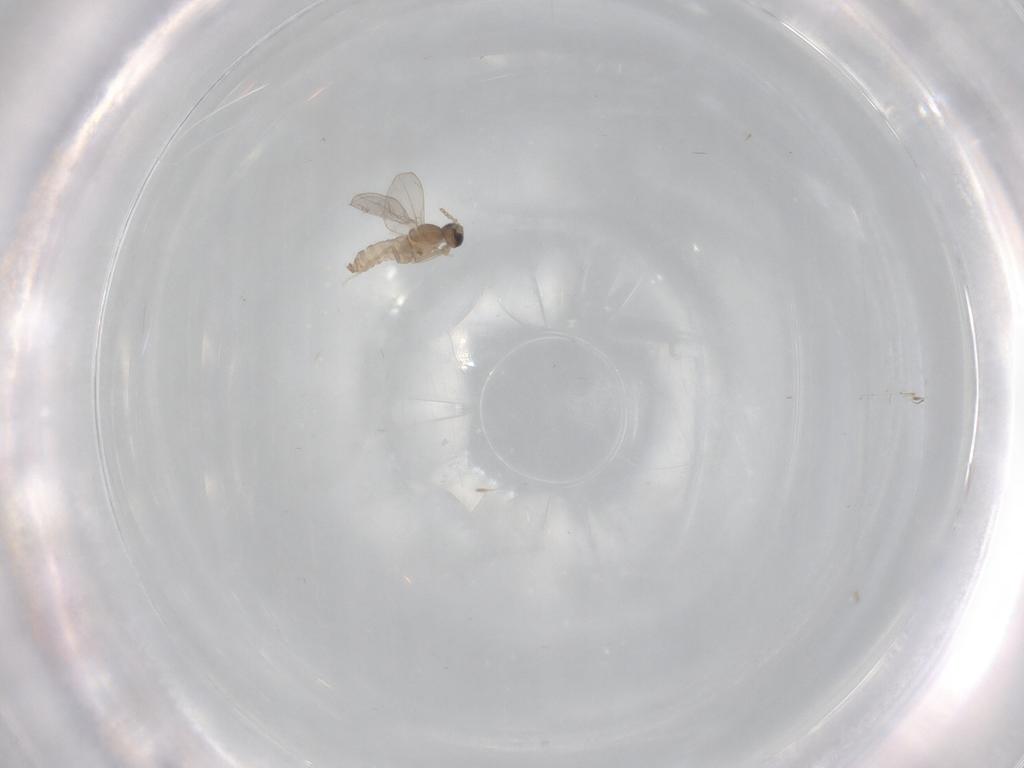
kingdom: Animalia
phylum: Arthropoda
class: Insecta
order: Diptera
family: Cecidomyiidae
